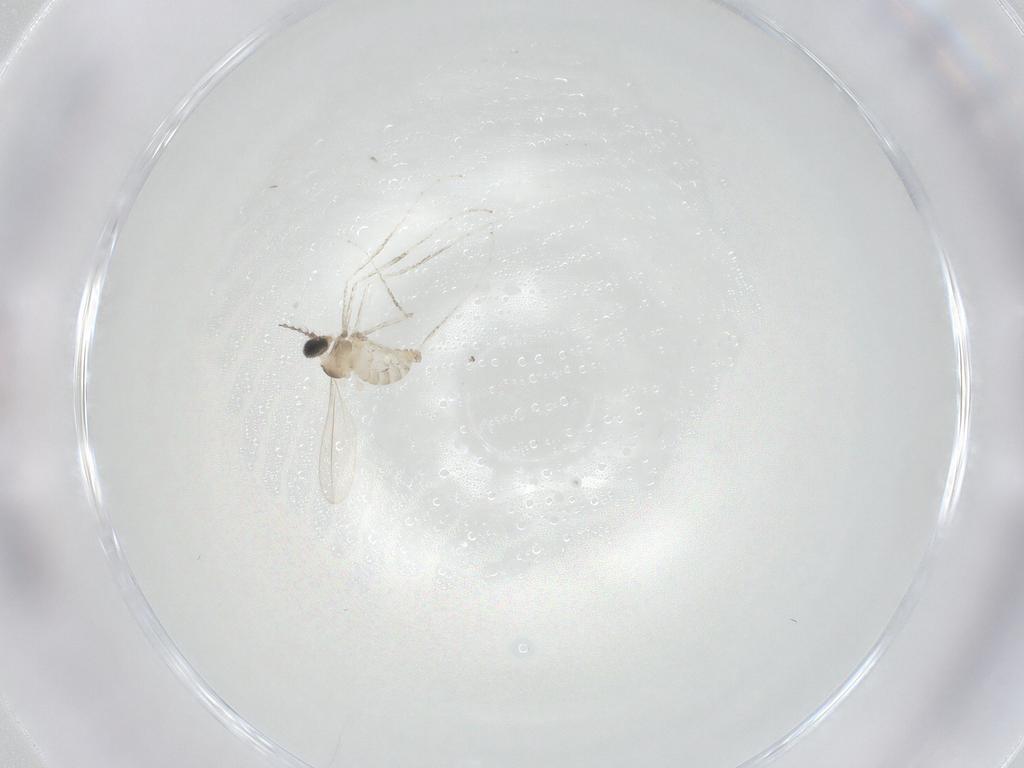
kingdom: Animalia
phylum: Arthropoda
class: Insecta
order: Diptera
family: Cecidomyiidae
